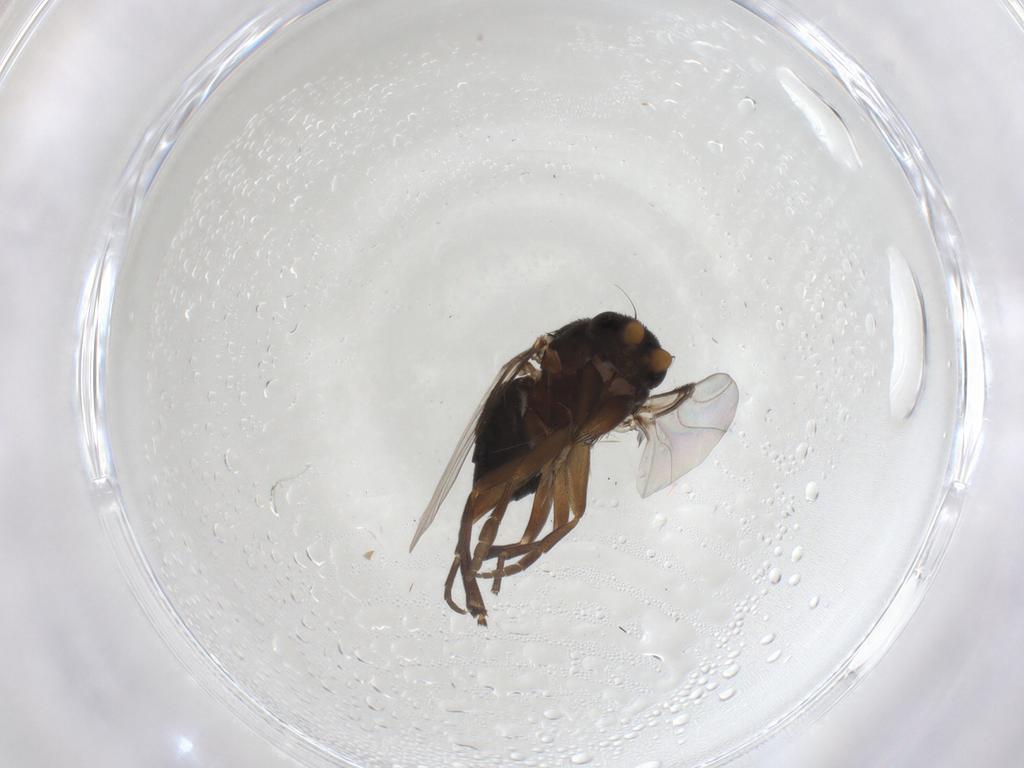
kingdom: Animalia
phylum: Arthropoda
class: Insecta
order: Diptera
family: Phoridae
